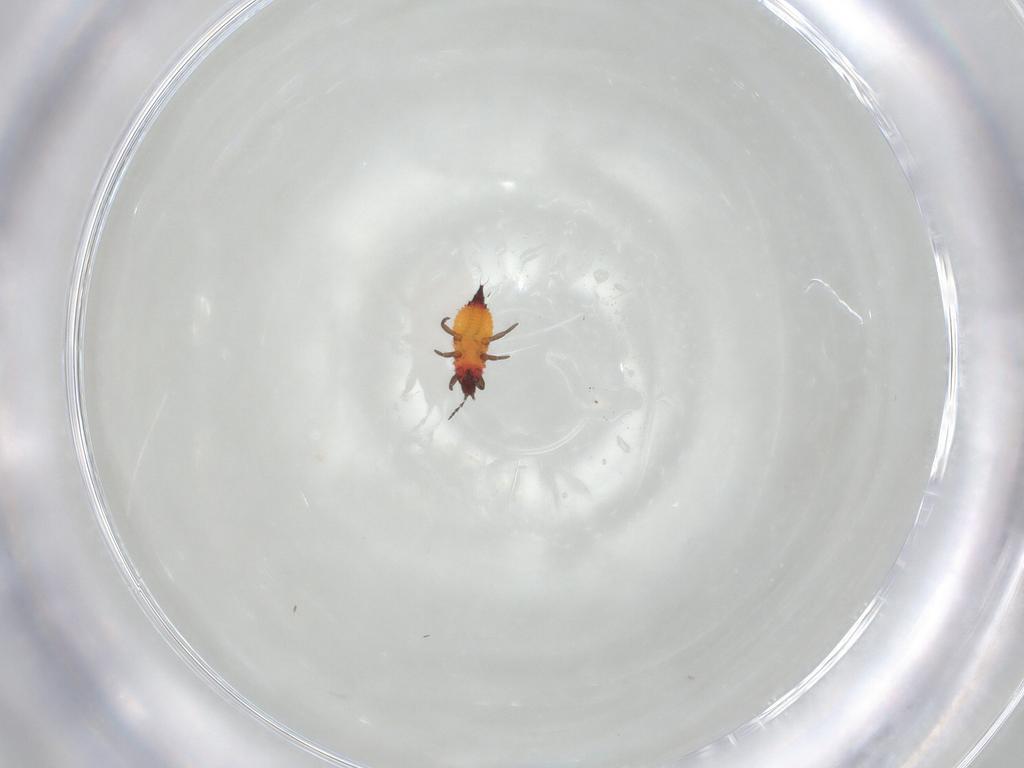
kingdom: Animalia
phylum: Arthropoda
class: Insecta
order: Thysanoptera
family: Phlaeothripidae
